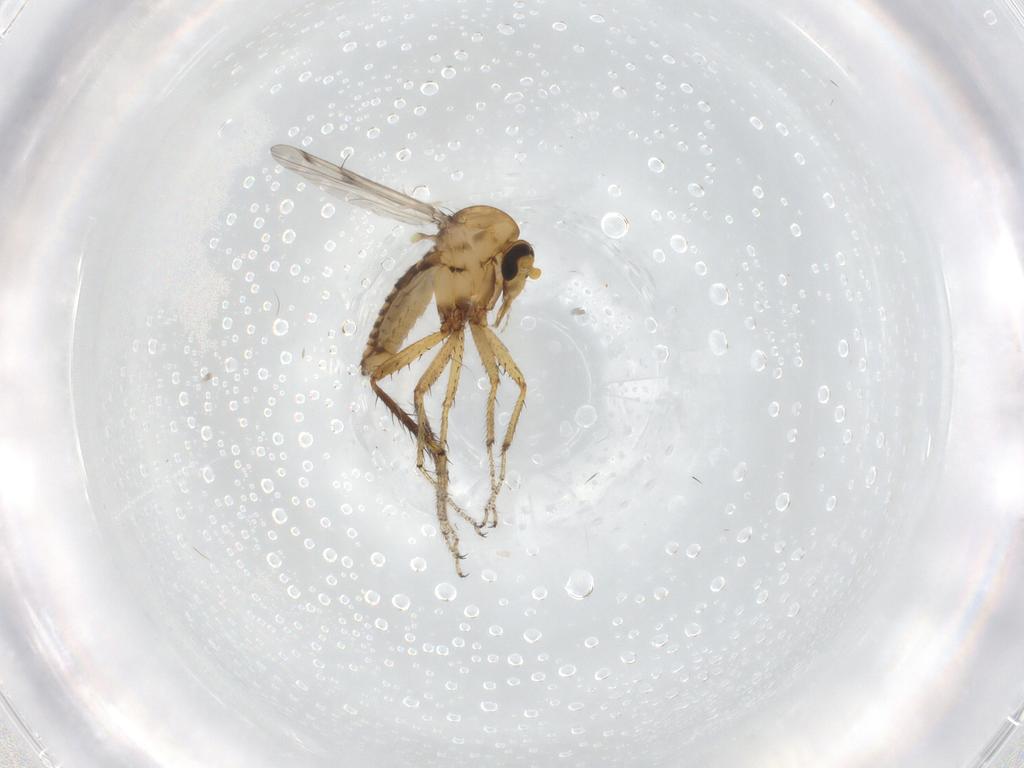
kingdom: Animalia
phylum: Arthropoda
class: Insecta
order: Diptera
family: Ceratopogonidae
